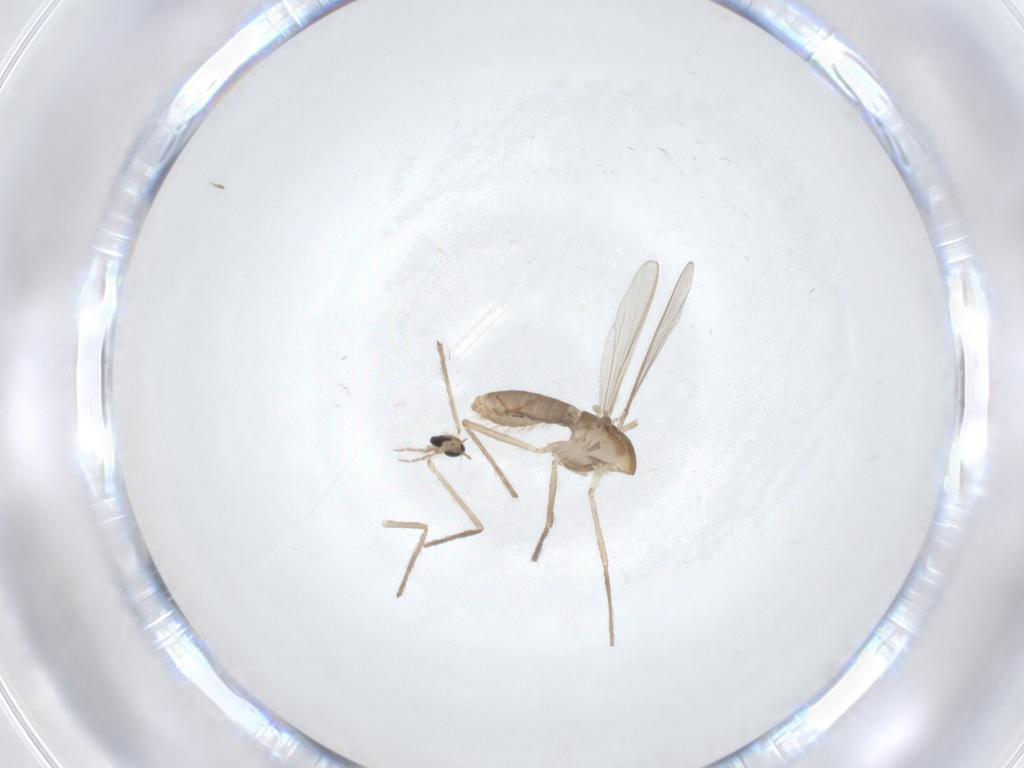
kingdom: Animalia
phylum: Arthropoda
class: Insecta
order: Diptera
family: Chironomidae
